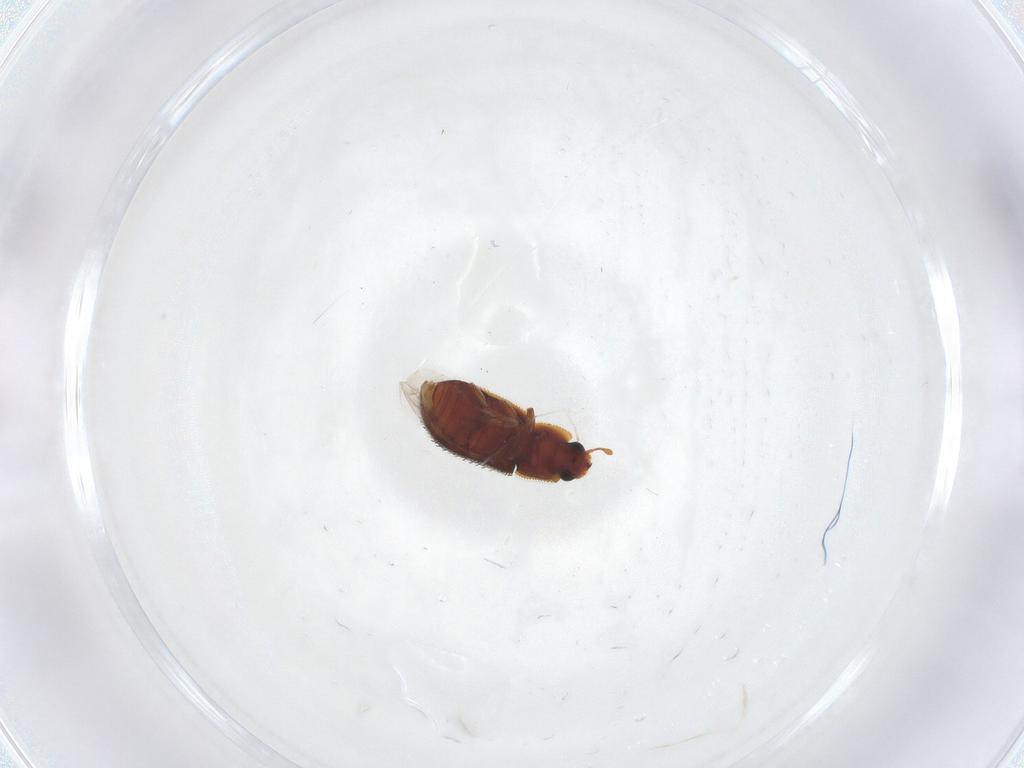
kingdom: Animalia
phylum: Arthropoda
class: Insecta
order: Coleoptera
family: Zopheridae
